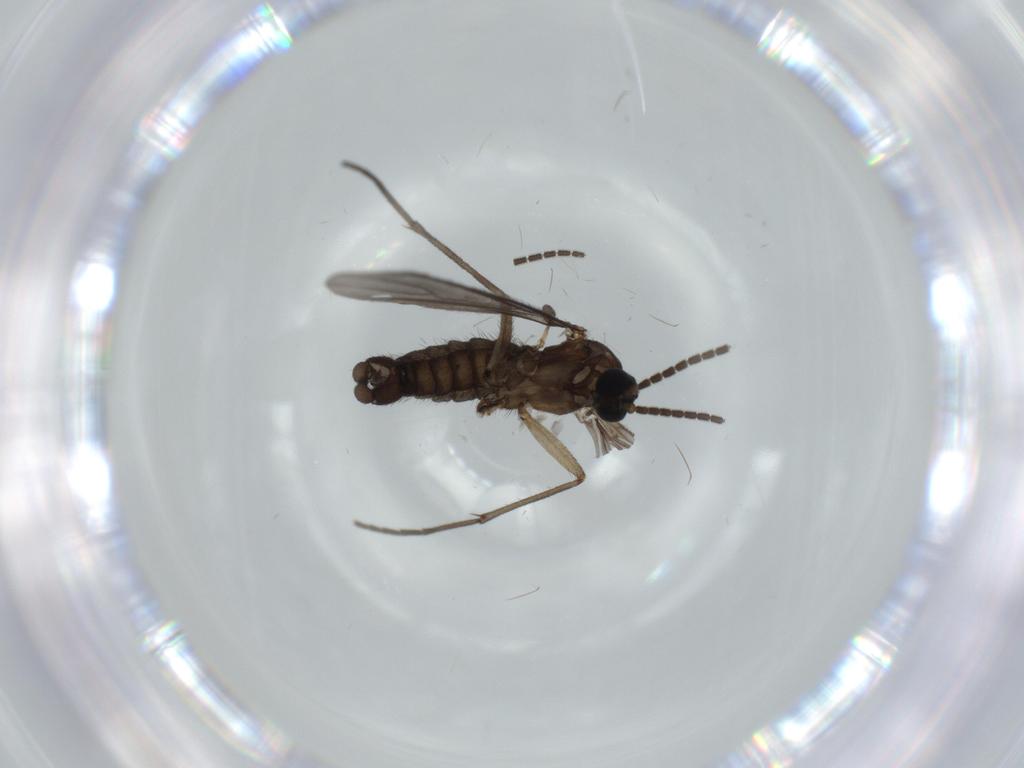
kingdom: Animalia
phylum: Arthropoda
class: Insecta
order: Diptera
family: Sciaridae
